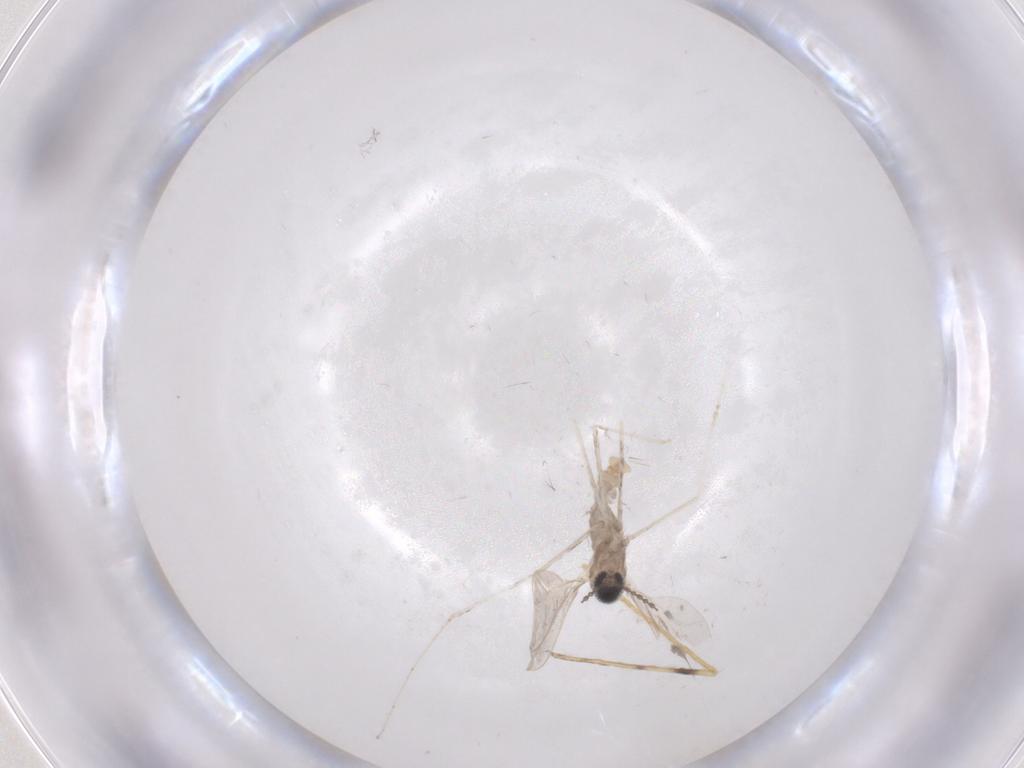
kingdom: Animalia
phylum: Arthropoda
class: Insecta
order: Diptera
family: Cecidomyiidae
